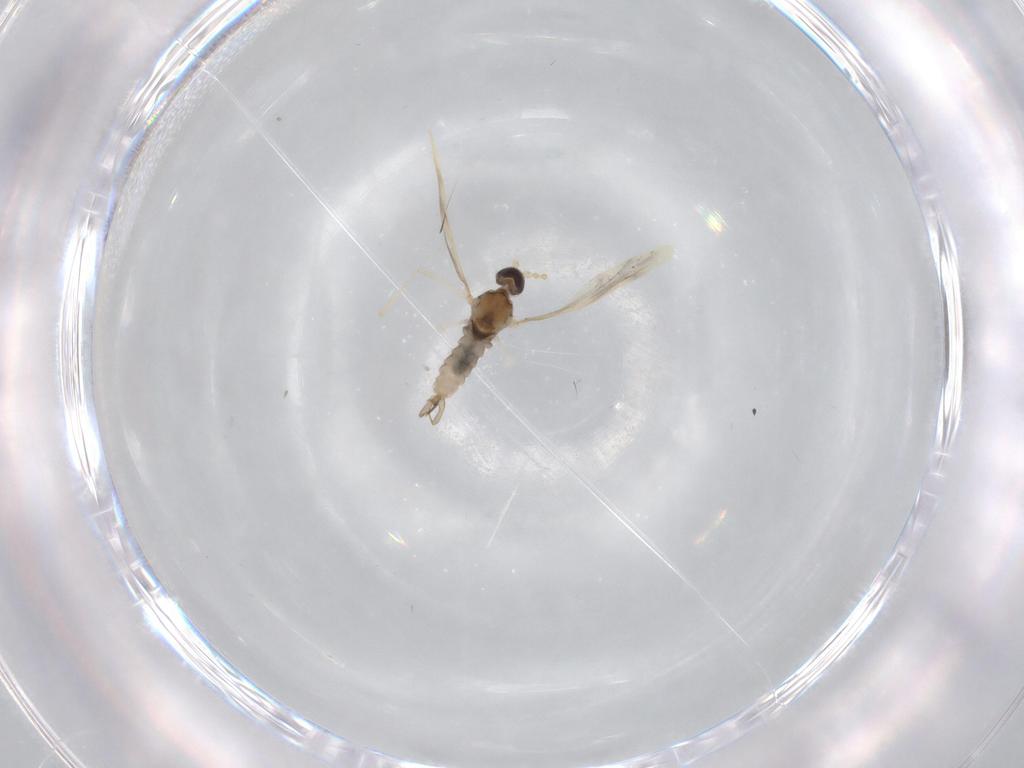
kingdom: Animalia
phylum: Arthropoda
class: Insecta
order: Diptera
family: Cecidomyiidae
